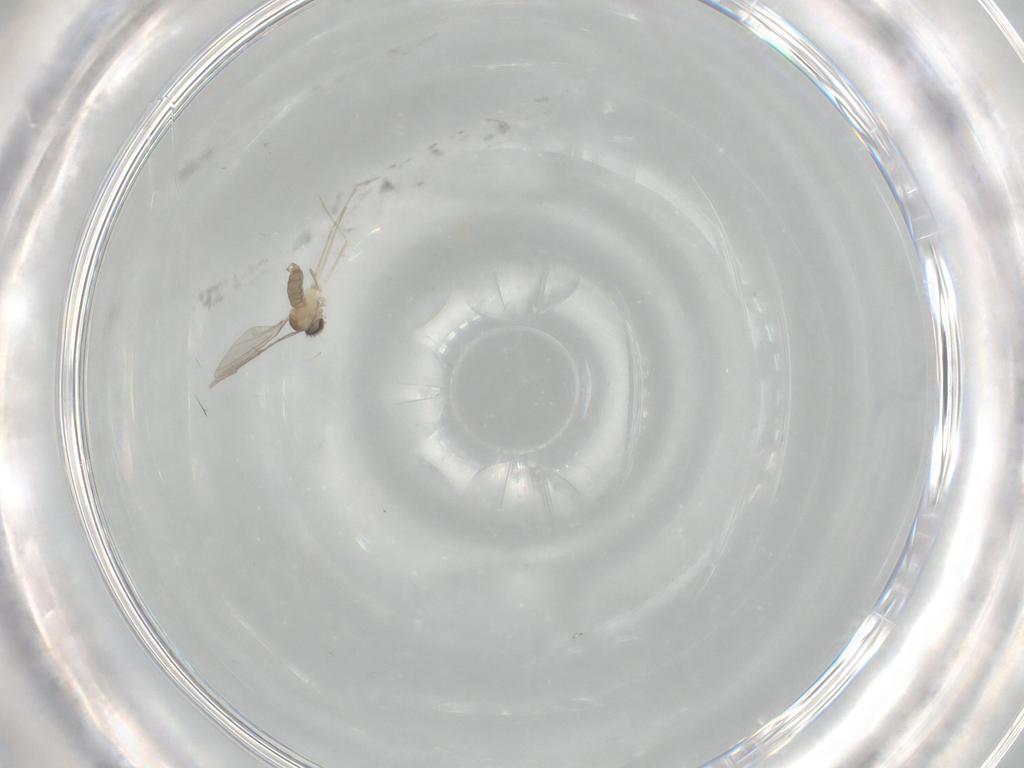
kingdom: Animalia
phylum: Arthropoda
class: Insecta
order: Diptera
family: Cecidomyiidae
